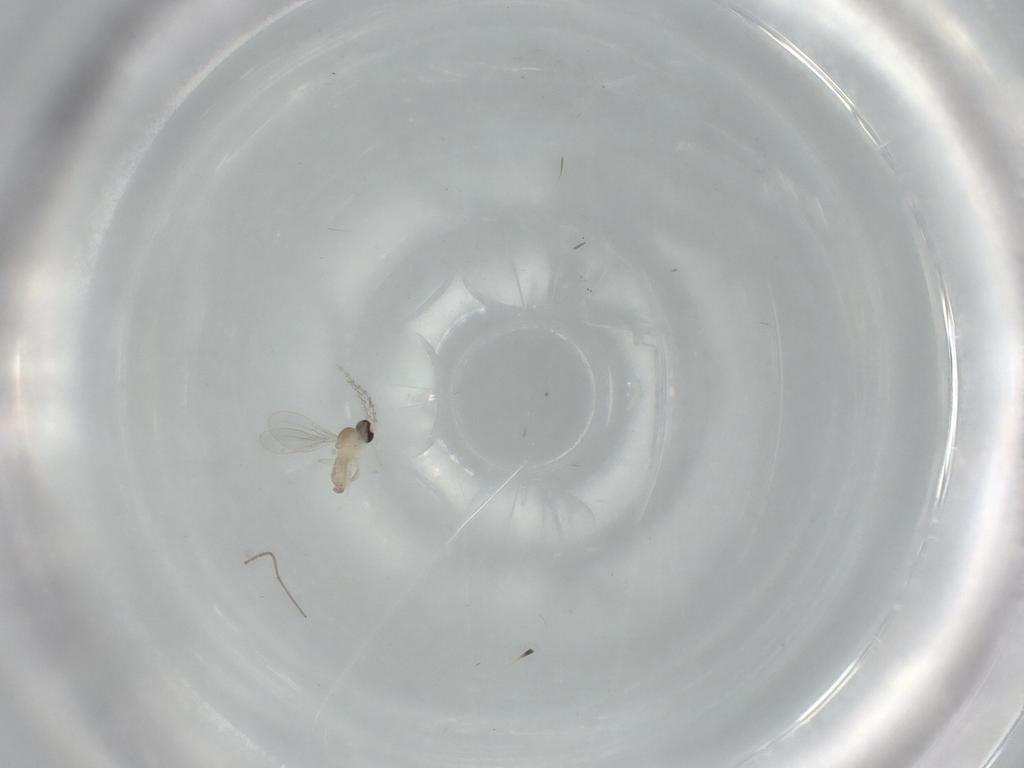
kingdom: Animalia
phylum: Arthropoda
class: Insecta
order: Diptera
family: Cecidomyiidae
